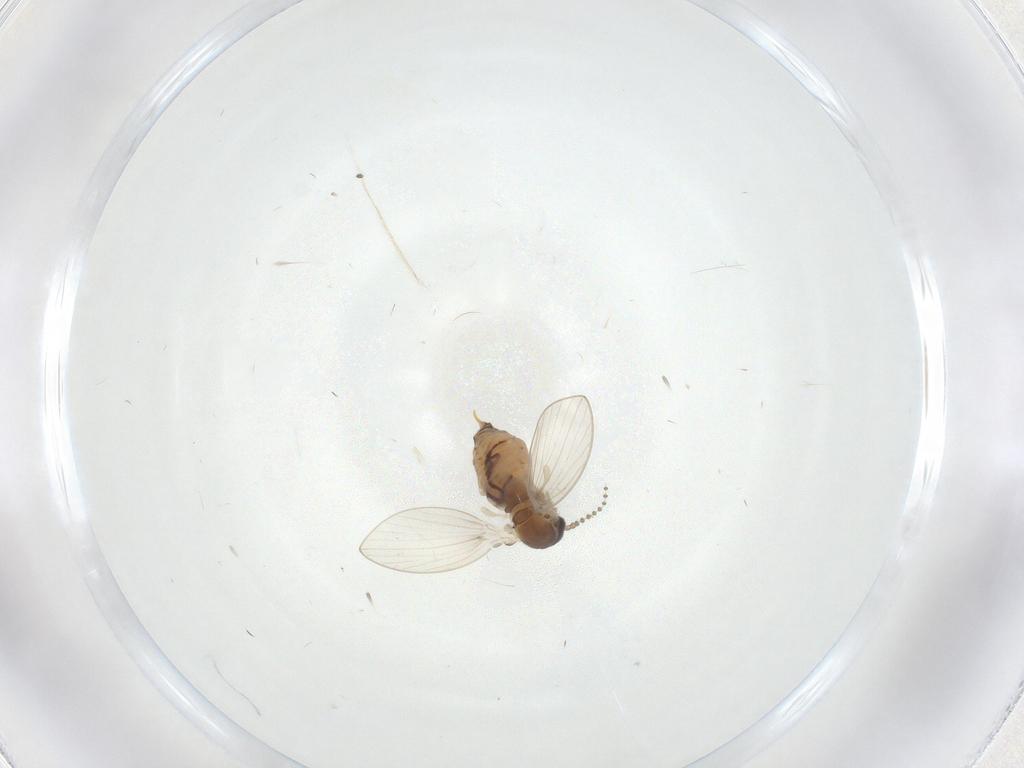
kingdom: Animalia
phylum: Arthropoda
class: Insecta
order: Diptera
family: Psychodidae
